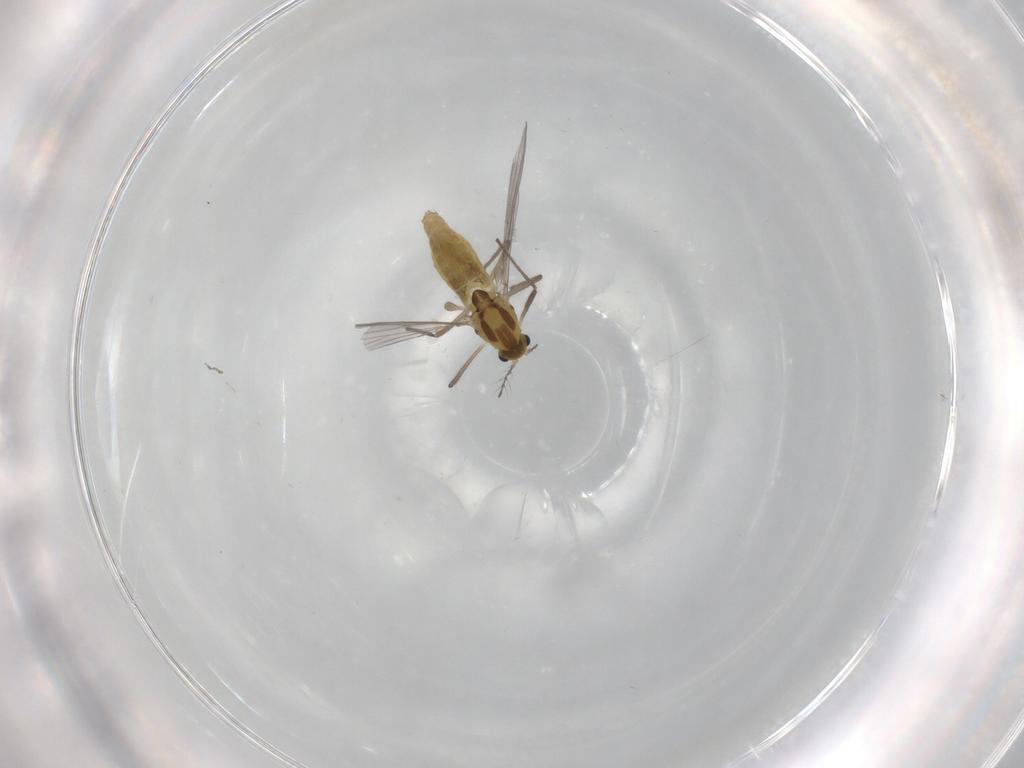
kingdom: Animalia
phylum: Arthropoda
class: Insecta
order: Diptera
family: Chironomidae
